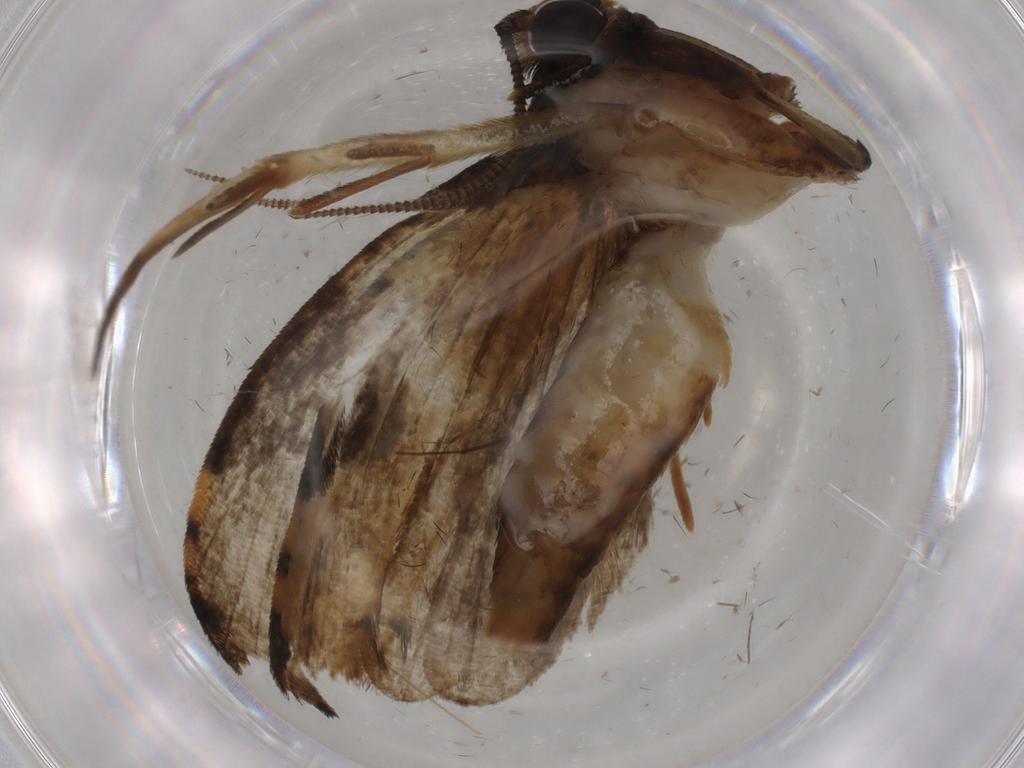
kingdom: Animalia
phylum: Arthropoda
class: Insecta
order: Lepidoptera
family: Tineidae
